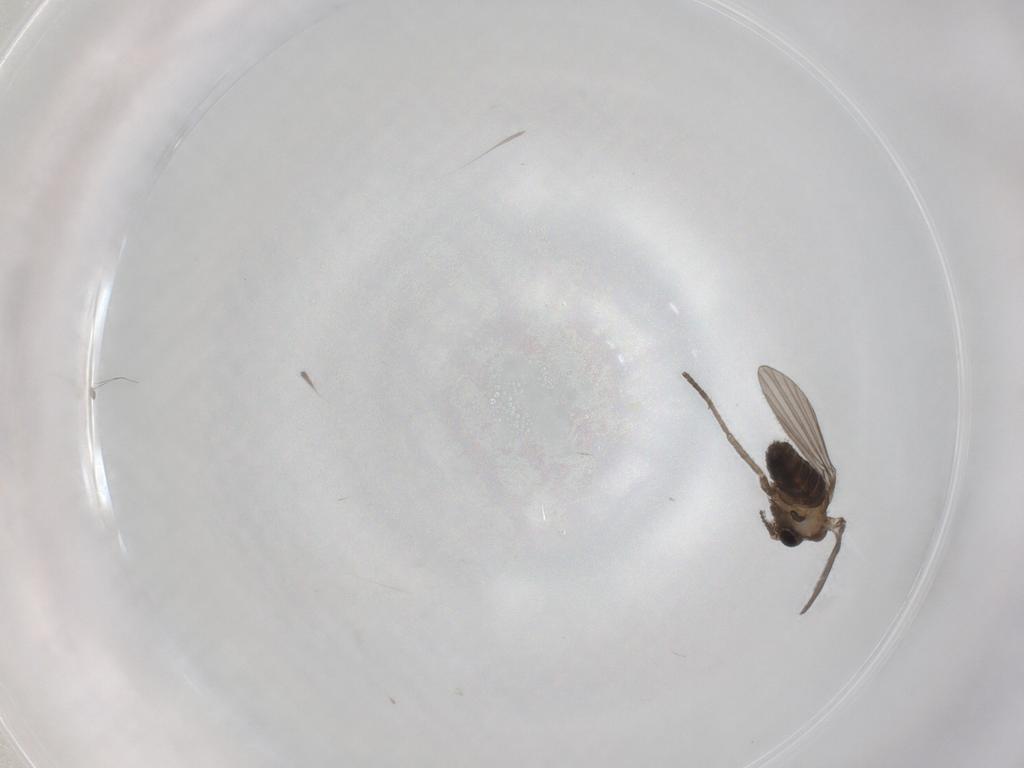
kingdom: Animalia
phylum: Arthropoda
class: Insecta
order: Diptera
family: Psychodidae
